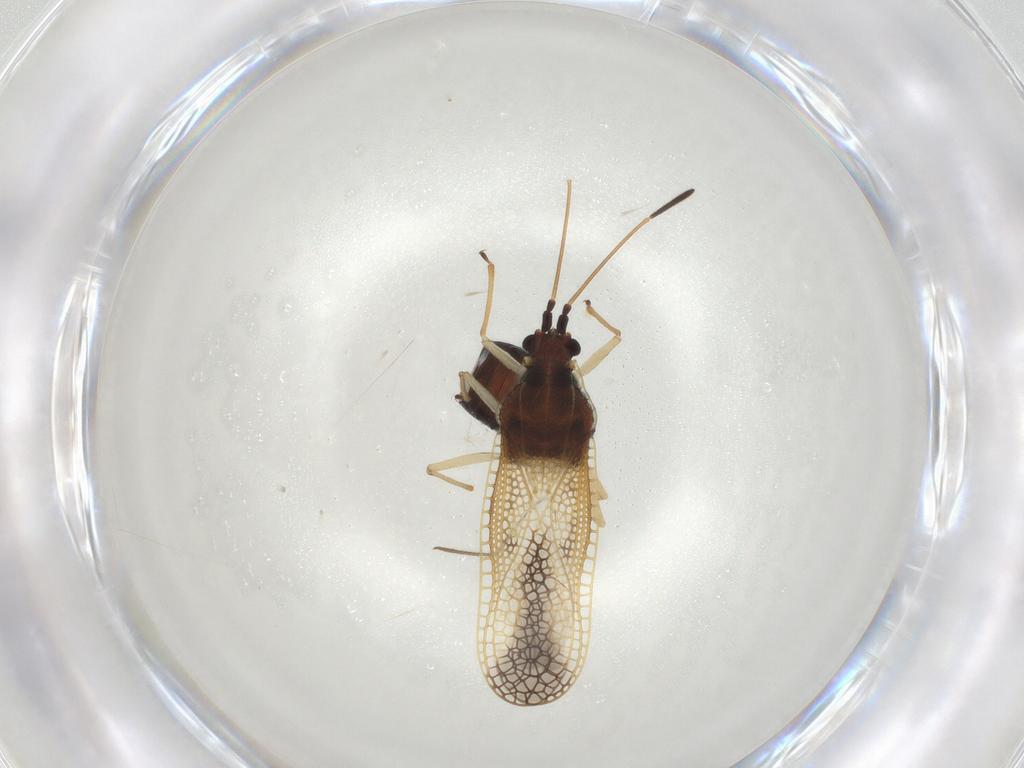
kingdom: Animalia
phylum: Arthropoda
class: Insecta
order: Hemiptera
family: Tingidae
